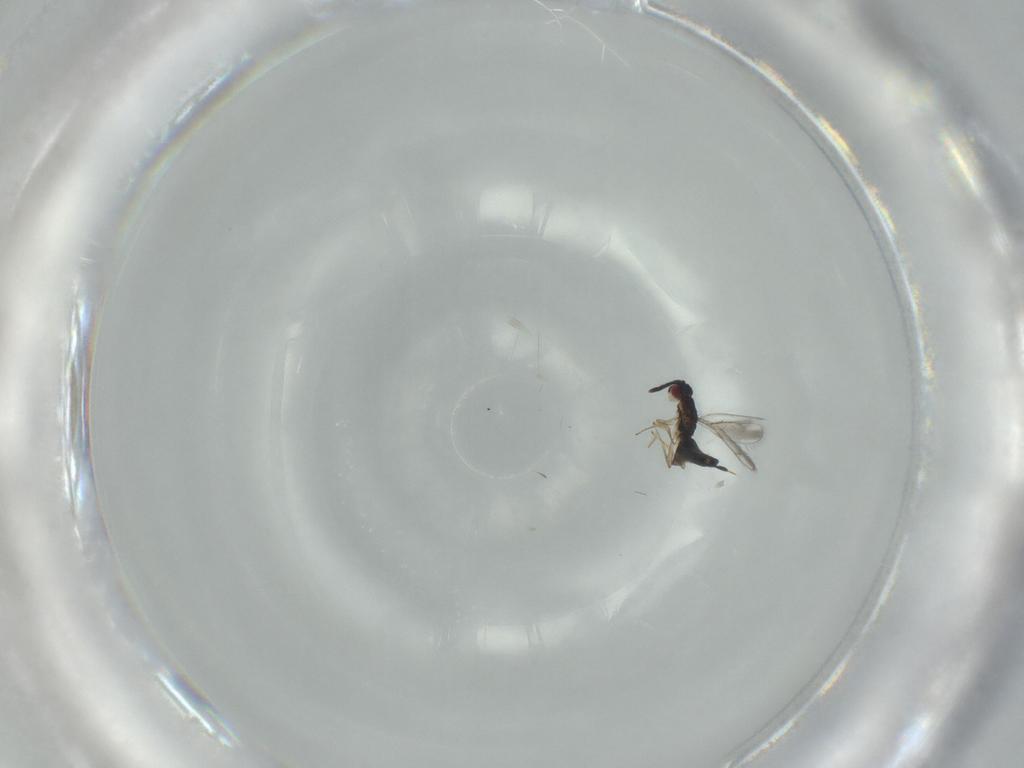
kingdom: Animalia
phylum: Arthropoda
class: Insecta
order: Hymenoptera
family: Pteromalidae
